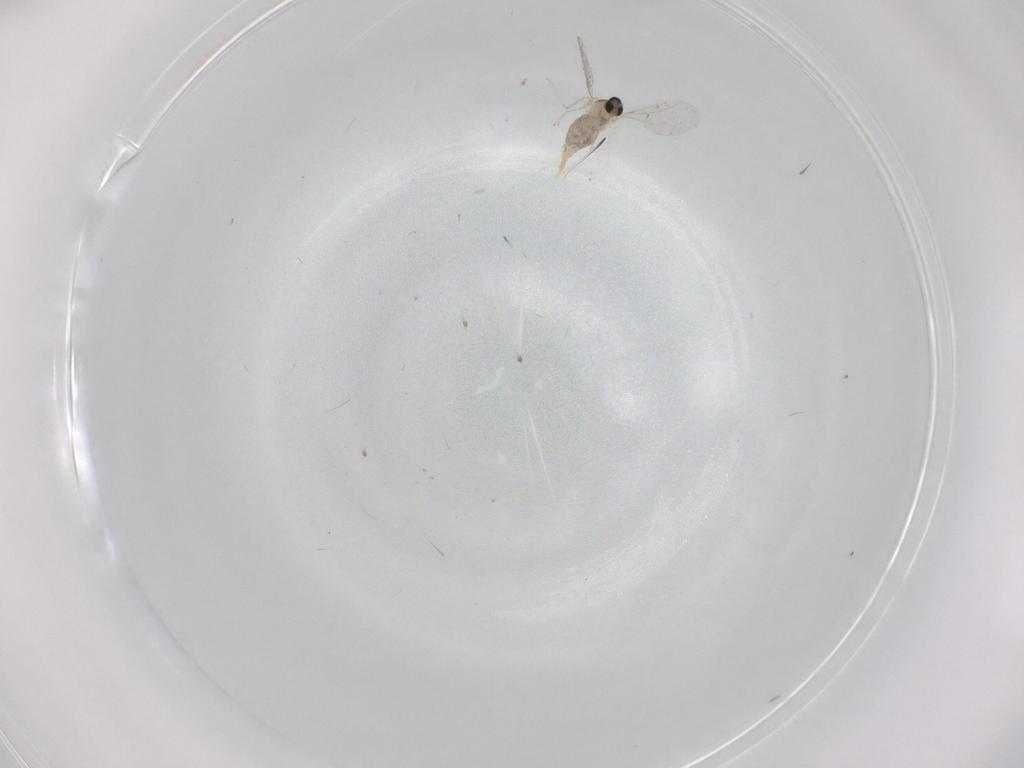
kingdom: Animalia
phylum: Arthropoda
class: Insecta
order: Diptera
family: Cecidomyiidae
